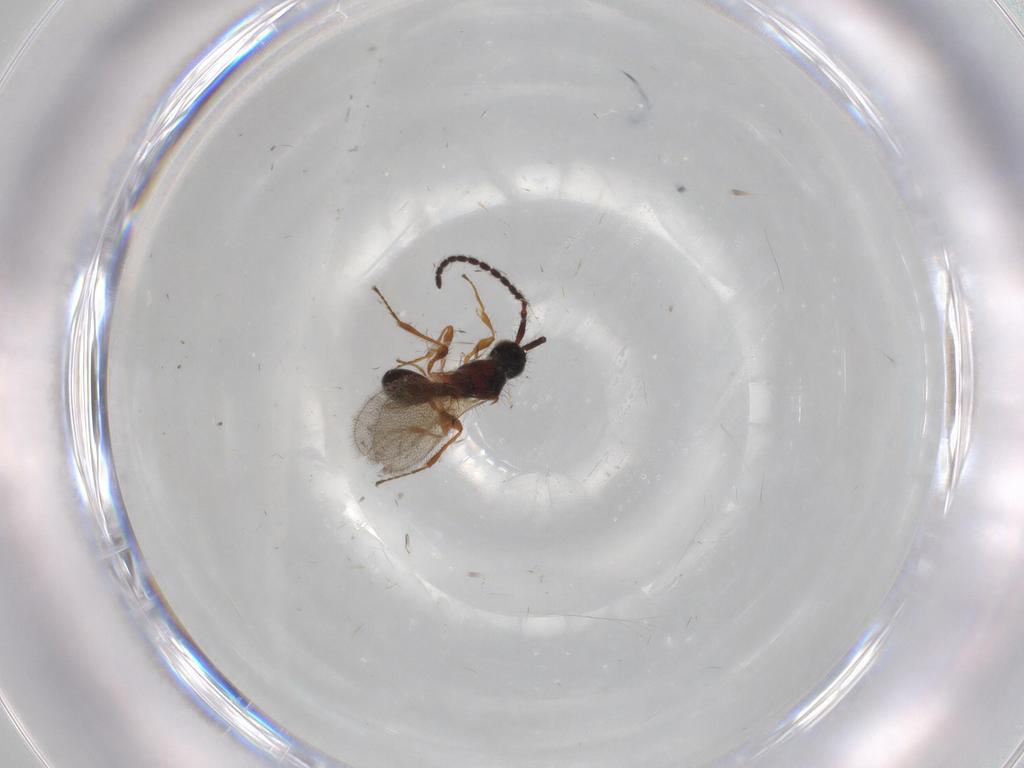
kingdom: Animalia
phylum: Arthropoda
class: Insecta
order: Hymenoptera
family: Diapriidae
